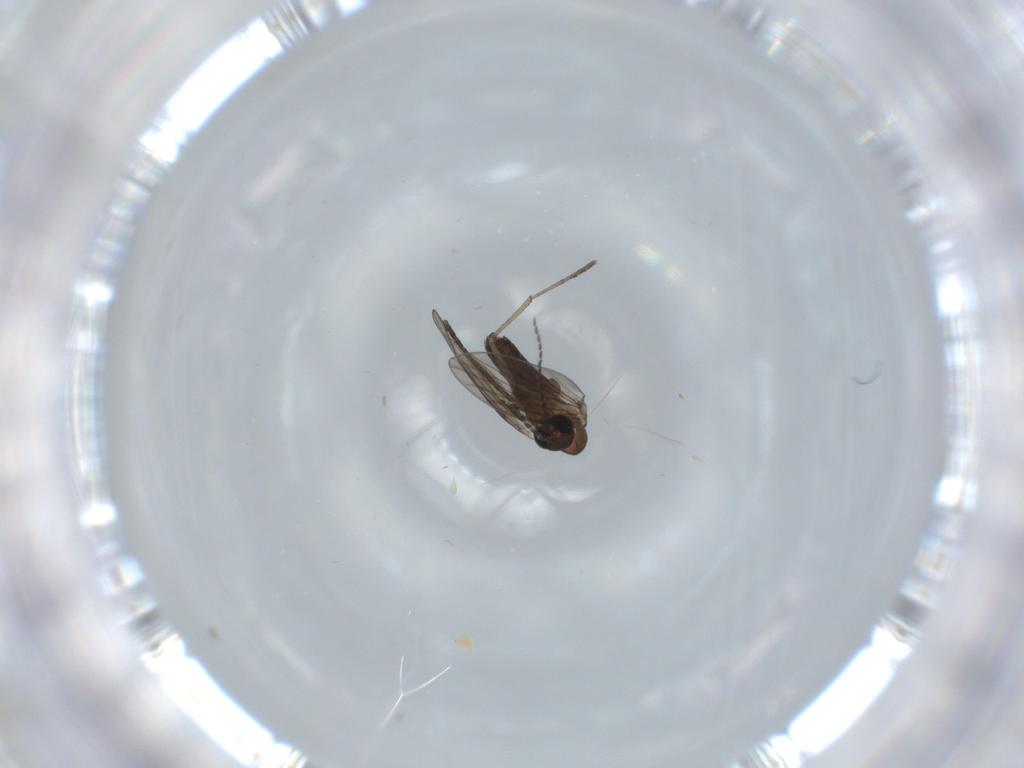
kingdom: Animalia
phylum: Arthropoda
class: Insecta
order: Diptera
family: Psychodidae
